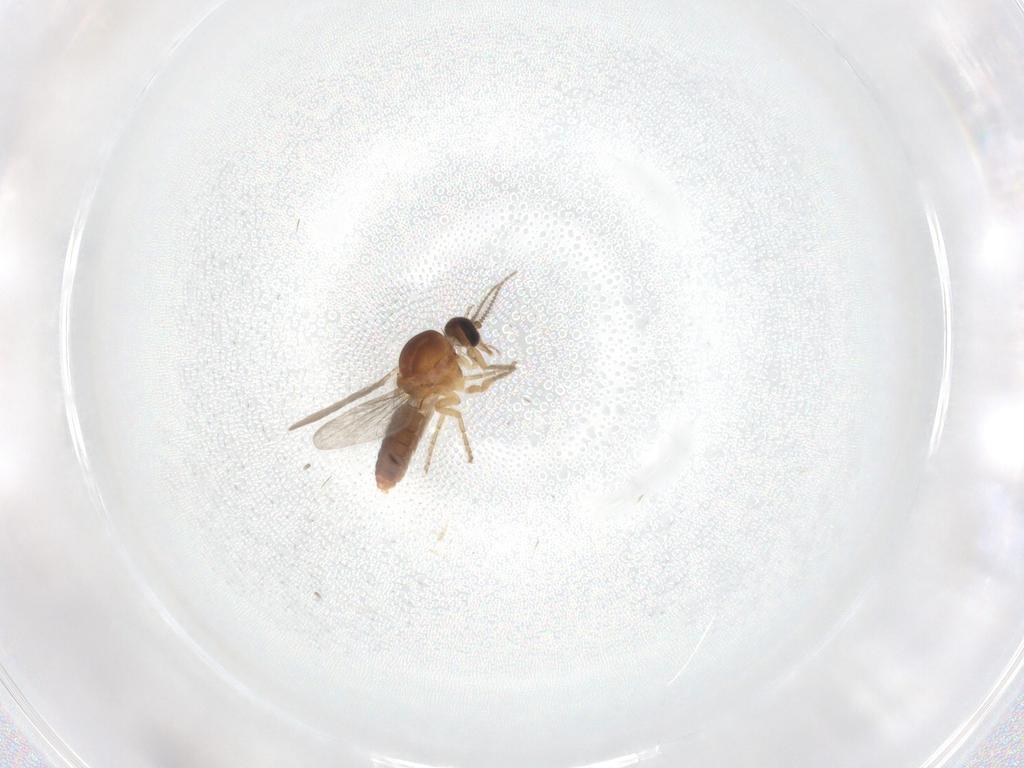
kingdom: Animalia
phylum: Arthropoda
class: Insecta
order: Diptera
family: Ceratopogonidae
